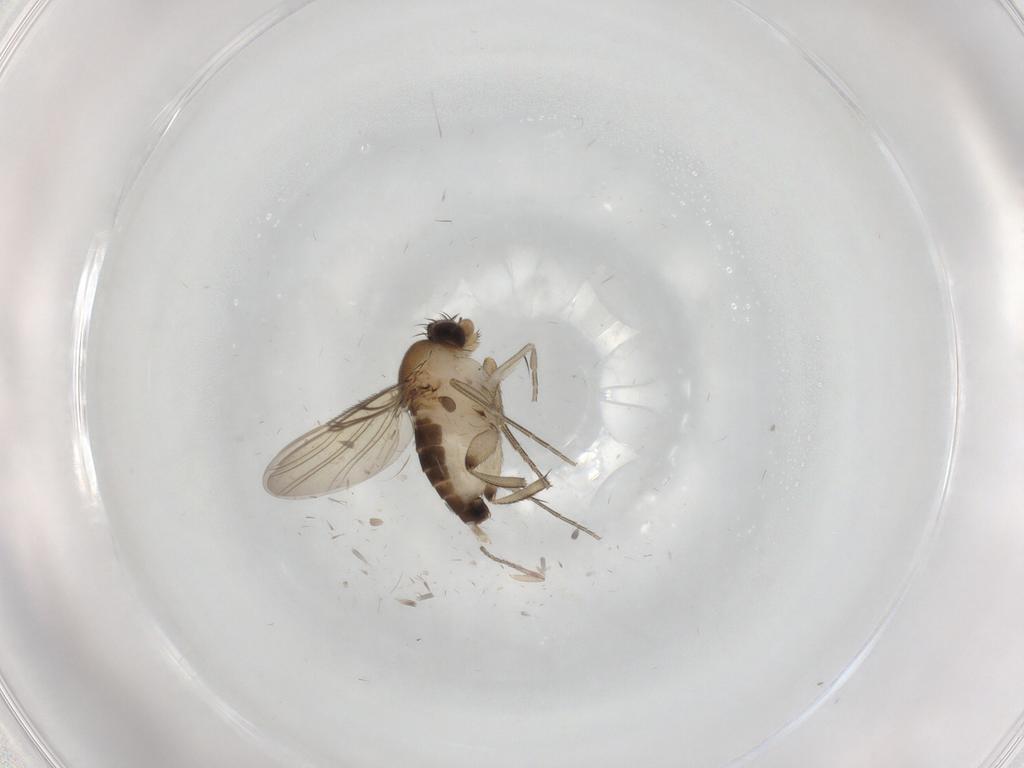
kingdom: Animalia
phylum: Arthropoda
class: Insecta
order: Diptera
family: Phoridae
